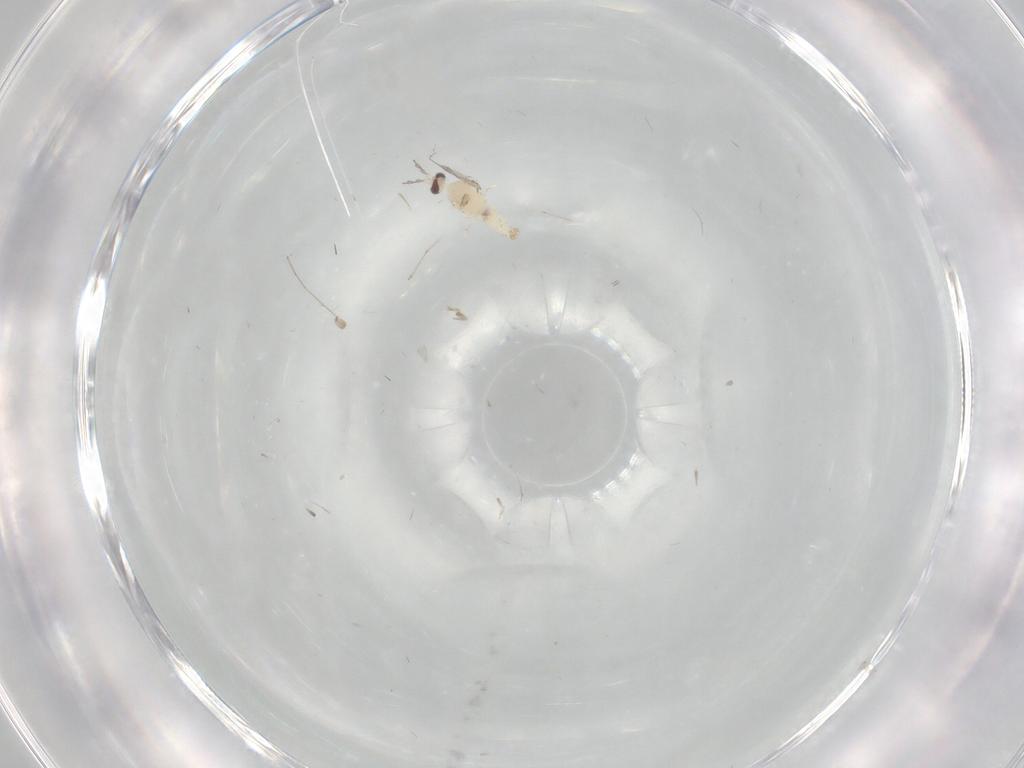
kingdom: Animalia
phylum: Arthropoda
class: Insecta
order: Diptera
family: Cecidomyiidae
